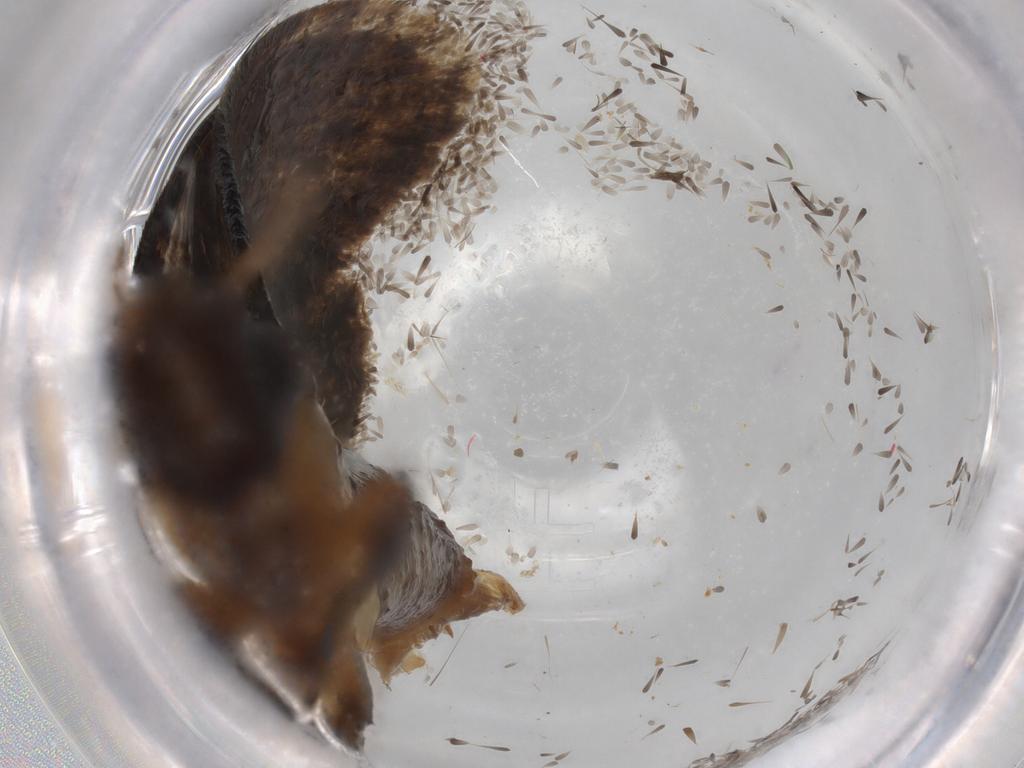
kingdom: Animalia
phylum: Arthropoda
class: Insecta
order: Lepidoptera
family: Tineidae
